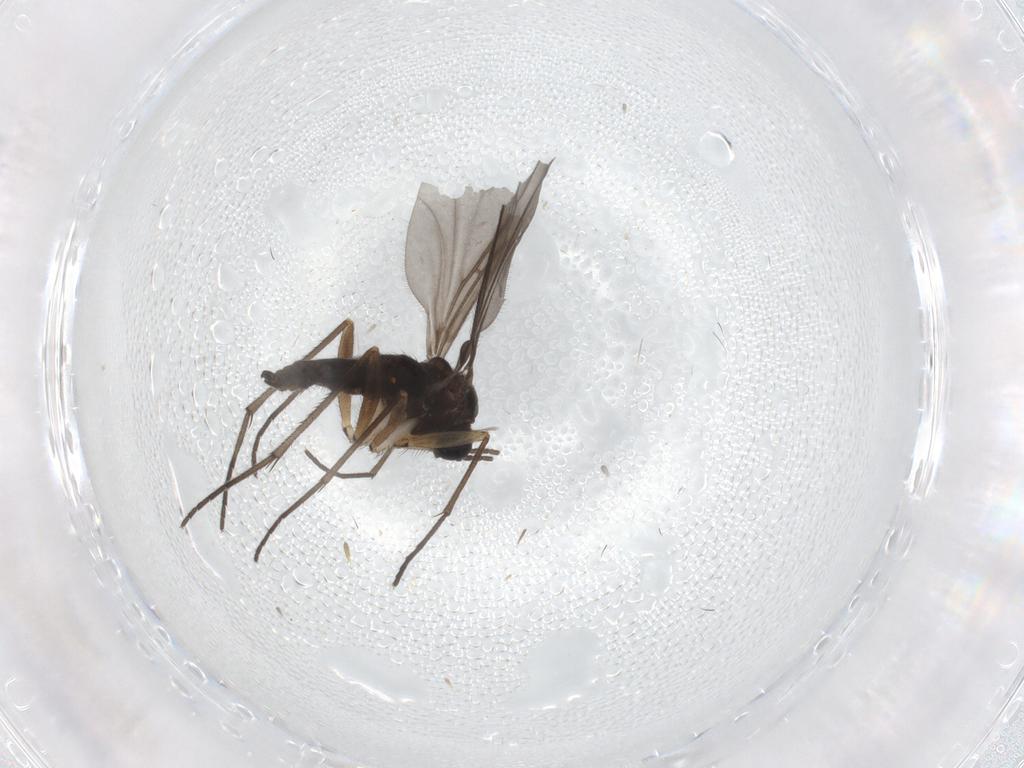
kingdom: Animalia
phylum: Arthropoda
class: Insecta
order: Diptera
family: Sciaridae
